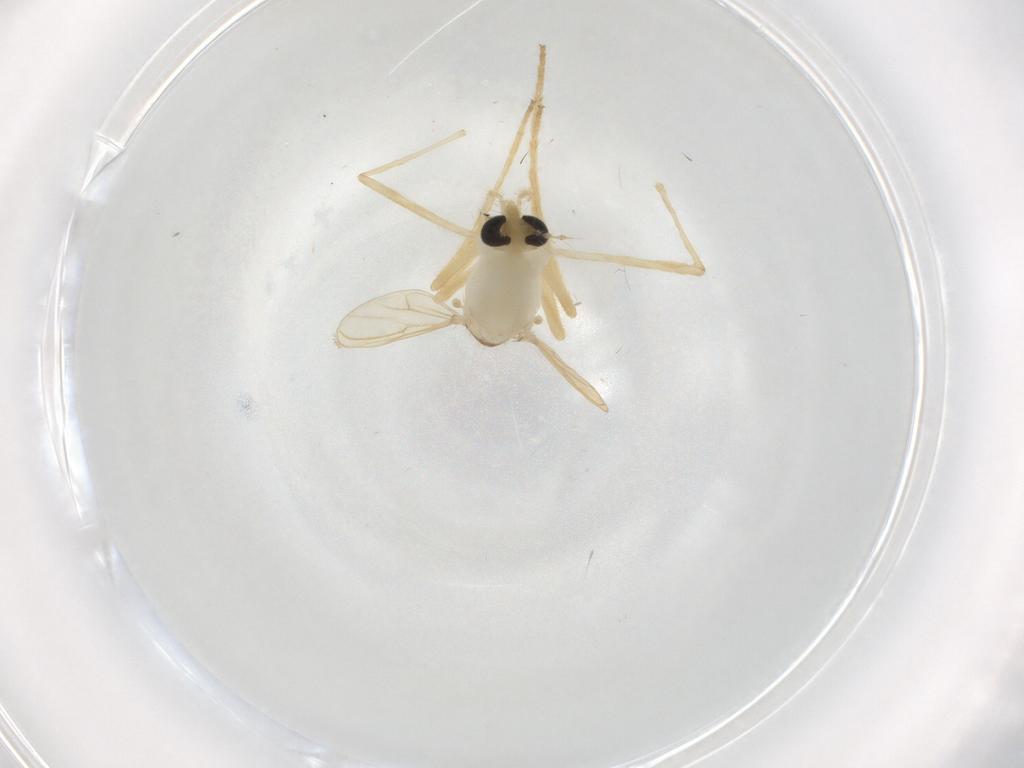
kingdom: Animalia
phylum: Arthropoda
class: Insecta
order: Diptera
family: Chironomidae
